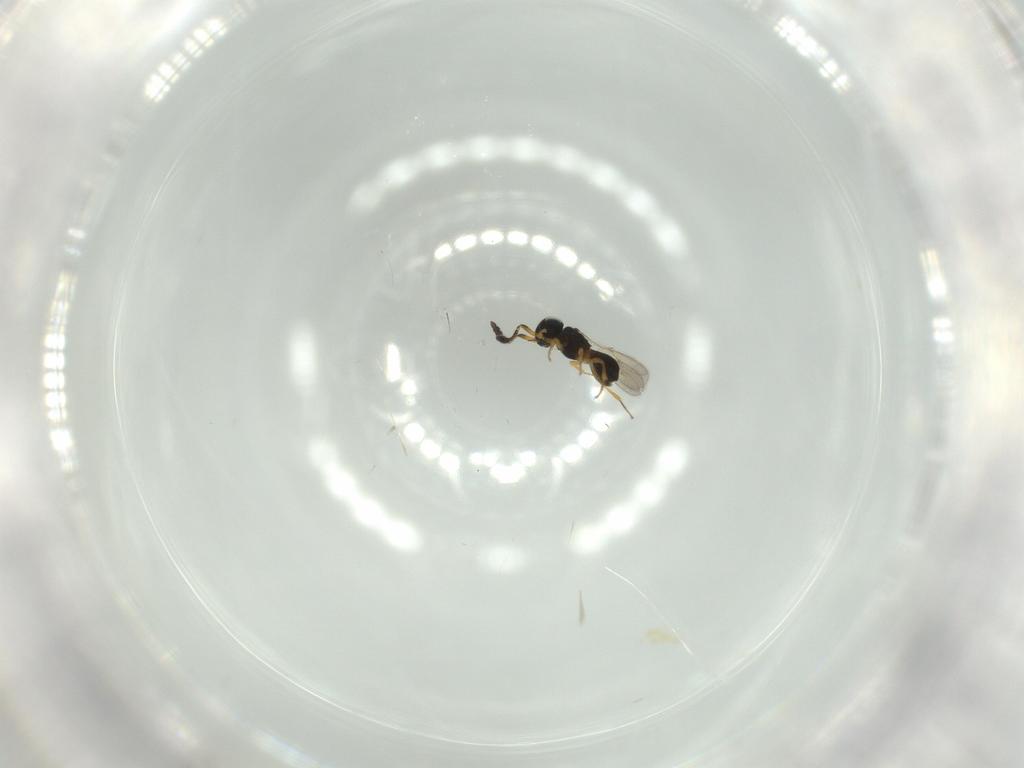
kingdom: Animalia
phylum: Arthropoda
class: Insecta
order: Hymenoptera
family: Scelionidae
